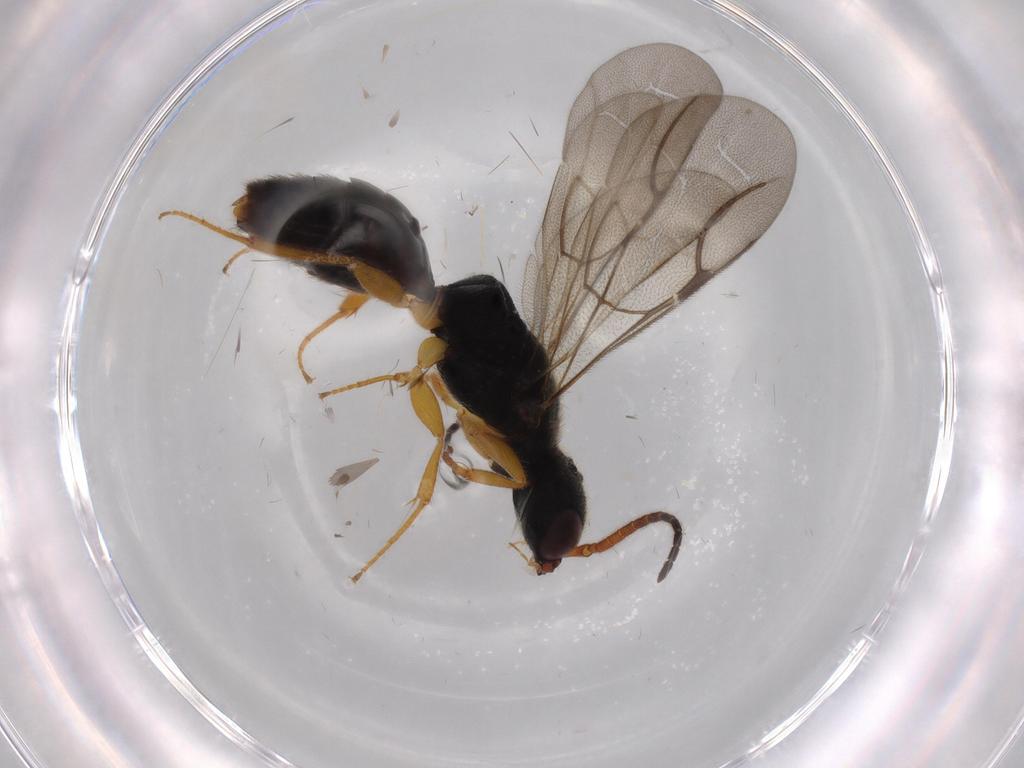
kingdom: Animalia
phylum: Arthropoda
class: Insecta
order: Hymenoptera
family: Bethylidae
